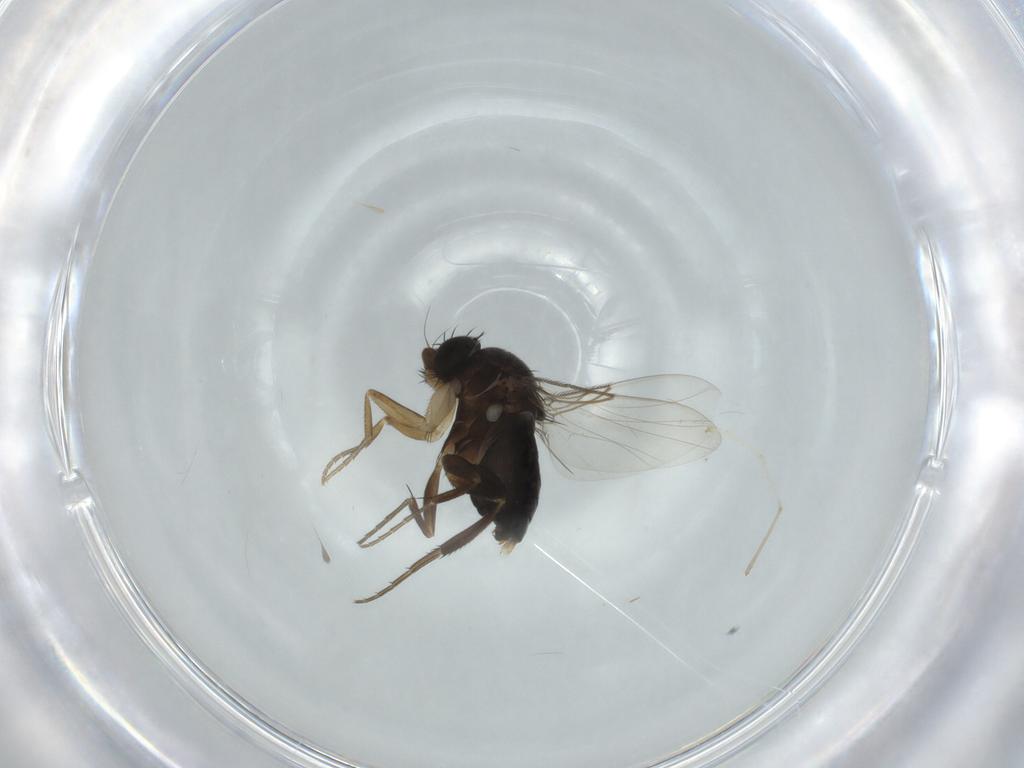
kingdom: Animalia
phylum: Arthropoda
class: Insecta
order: Diptera
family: Phoridae
